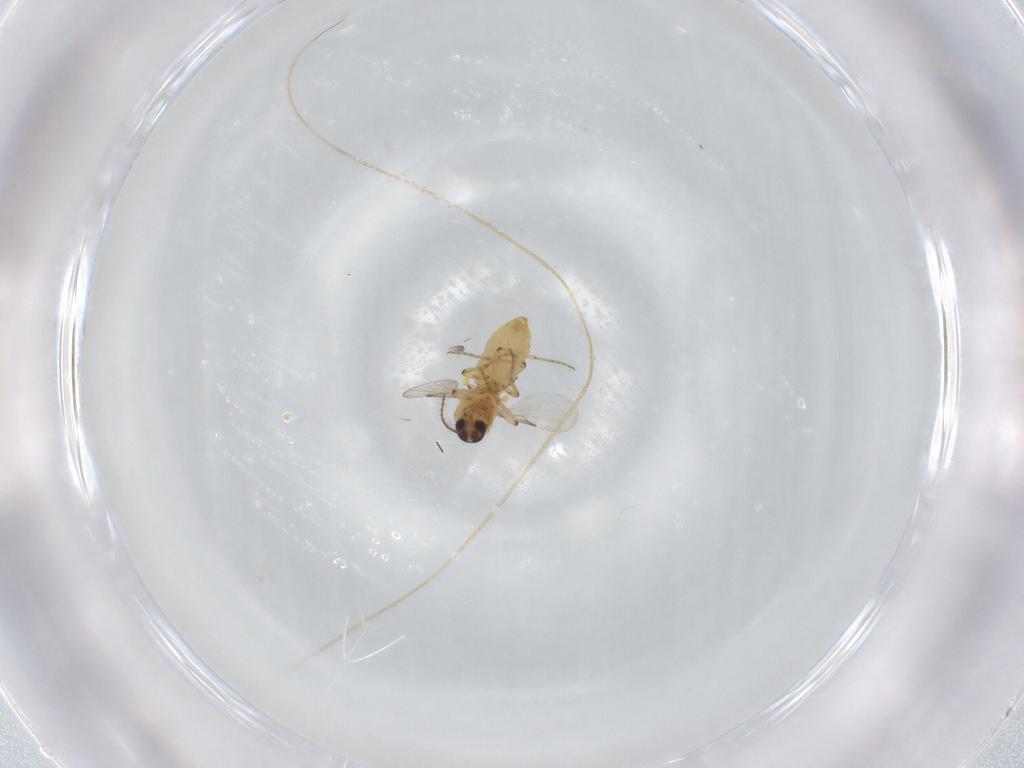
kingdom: Animalia
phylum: Arthropoda
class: Insecta
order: Diptera
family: Ceratopogonidae
